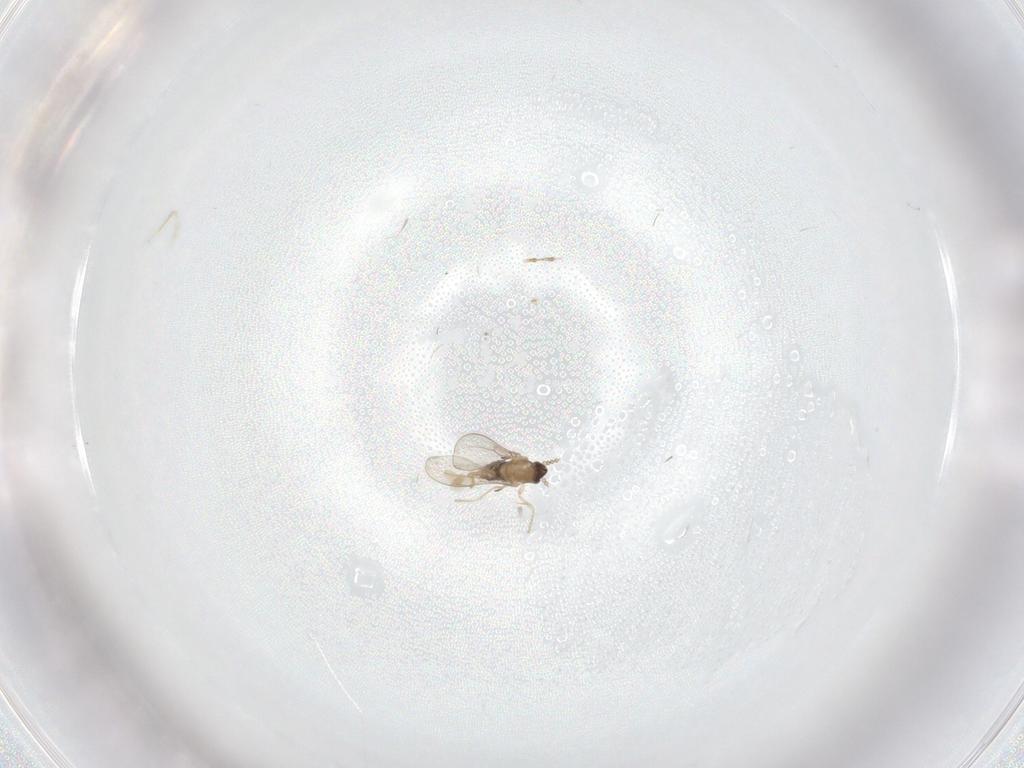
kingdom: Animalia
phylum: Arthropoda
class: Insecta
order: Diptera
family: Cecidomyiidae
